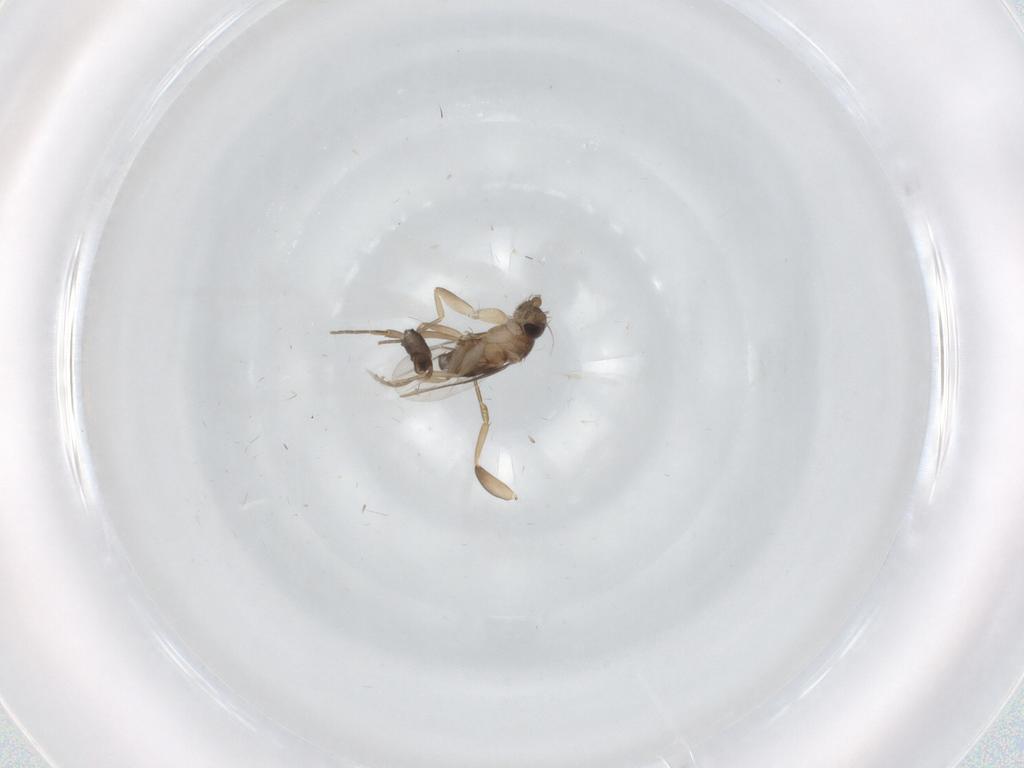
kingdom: Animalia
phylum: Arthropoda
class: Insecta
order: Diptera
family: Phoridae
